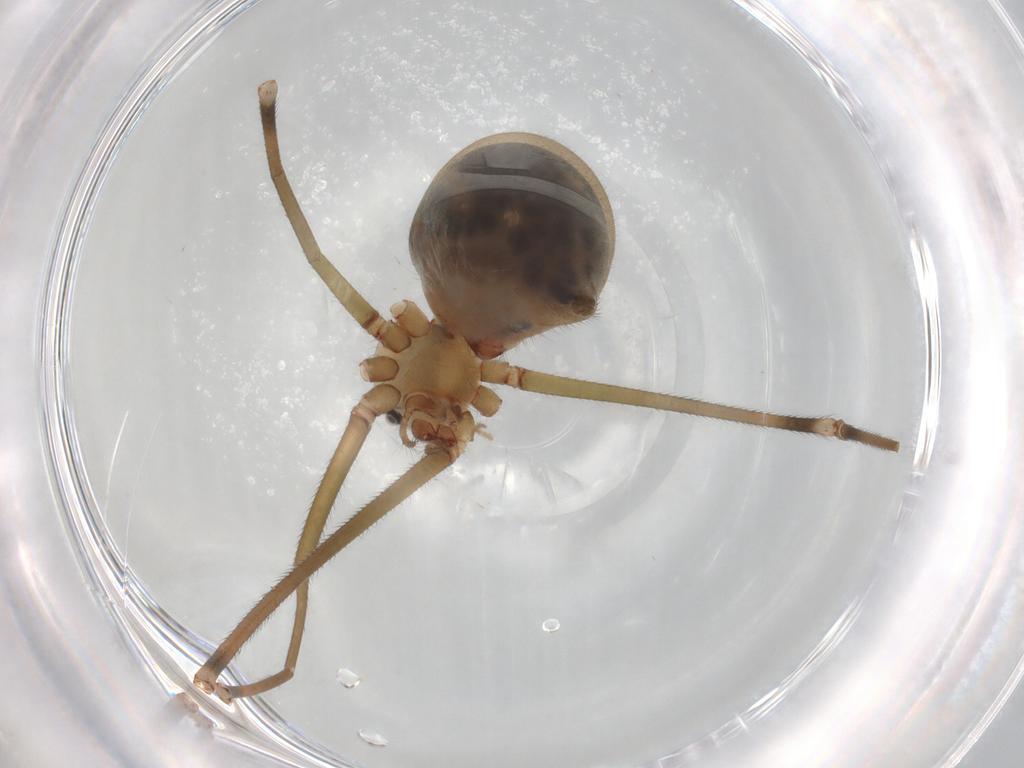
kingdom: Animalia
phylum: Arthropoda
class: Arachnida
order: Araneae
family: Pholcidae
